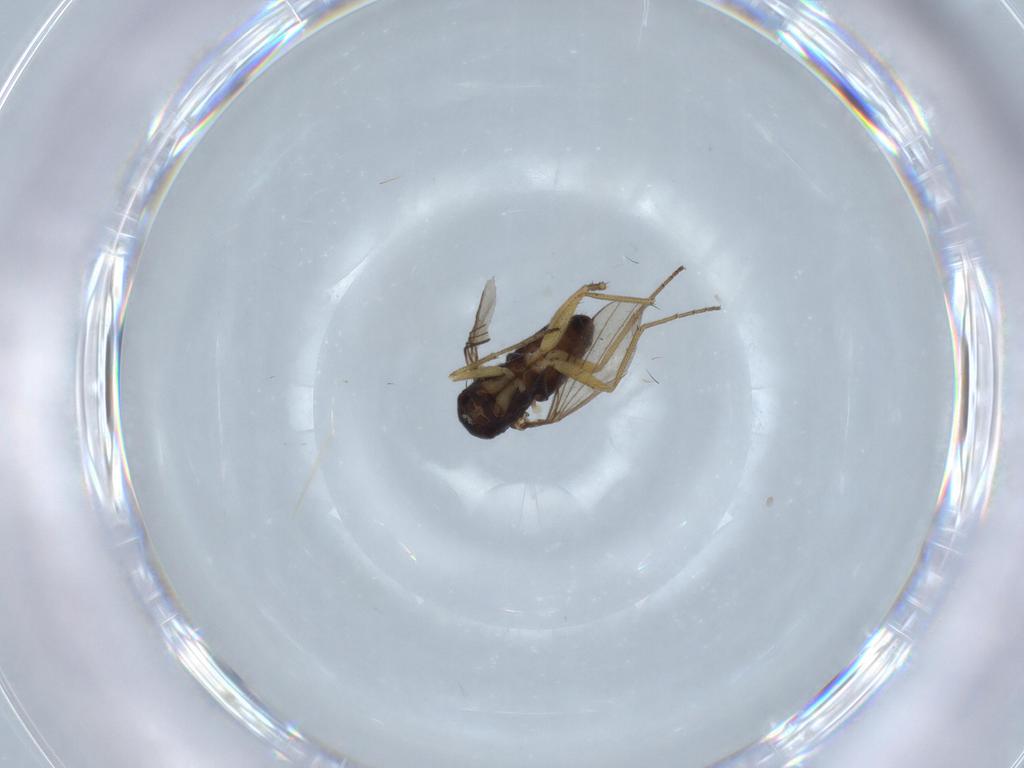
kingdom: Animalia
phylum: Arthropoda
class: Insecta
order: Diptera
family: Dolichopodidae
